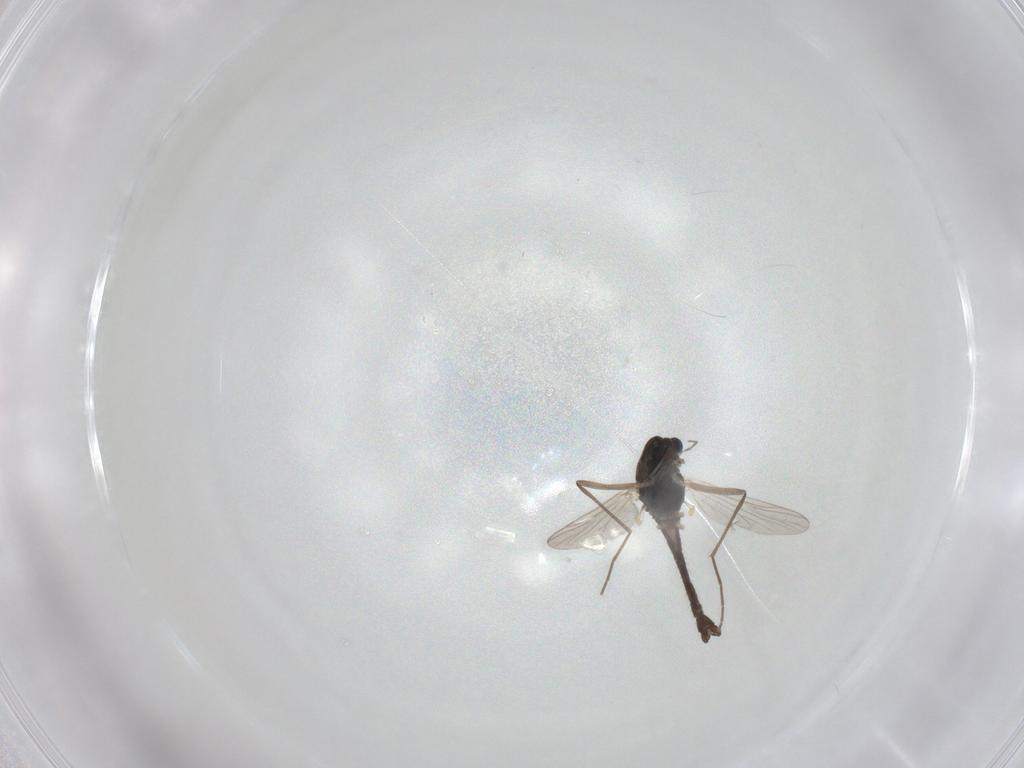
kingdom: Animalia
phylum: Arthropoda
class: Insecta
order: Diptera
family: Chironomidae
